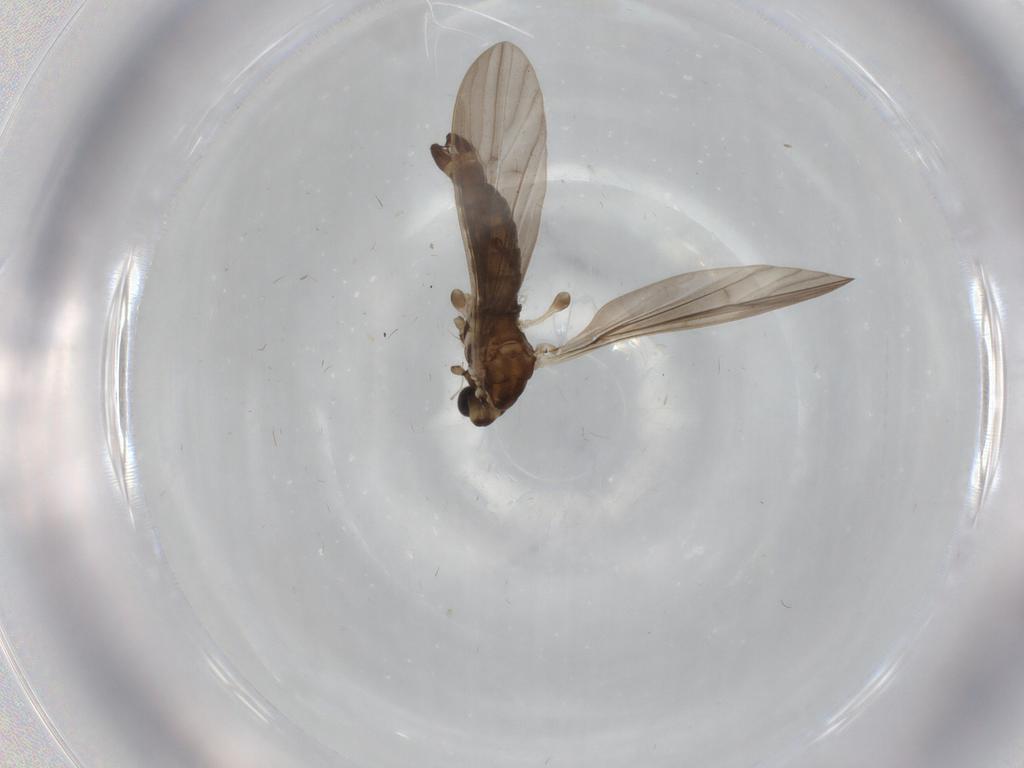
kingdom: Animalia
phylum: Arthropoda
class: Insecta
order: Diptera
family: Limoniidae
